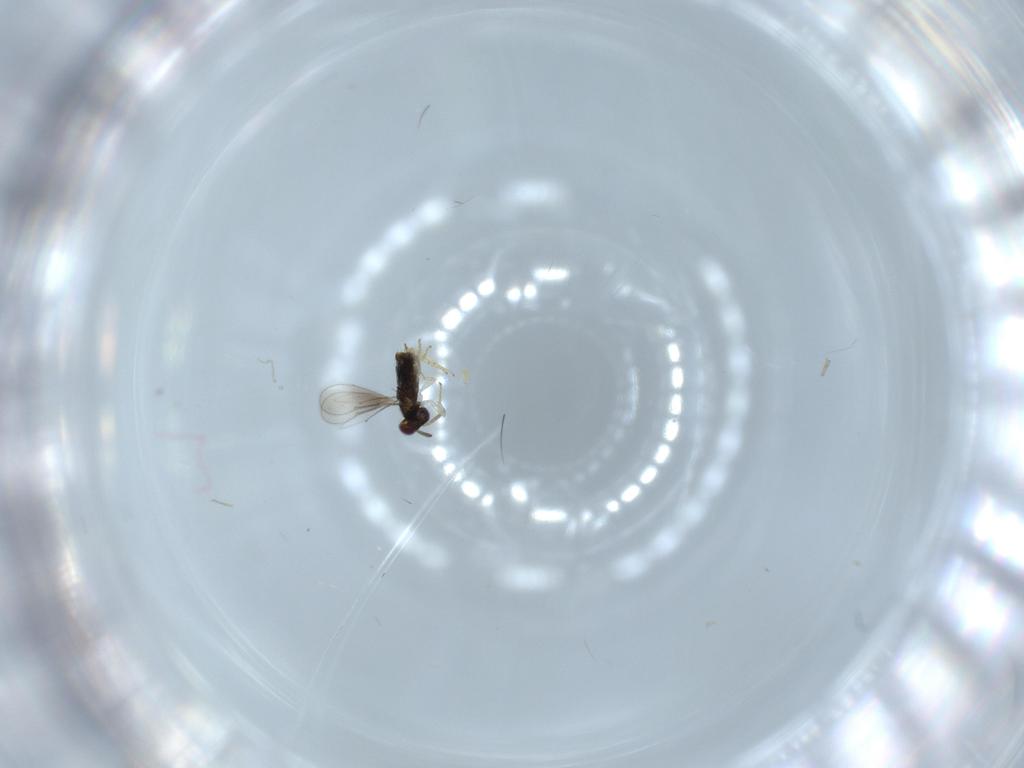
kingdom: Animalia
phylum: Arthropoda
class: Insecta
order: Hymenoptera
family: Aphelinidae
